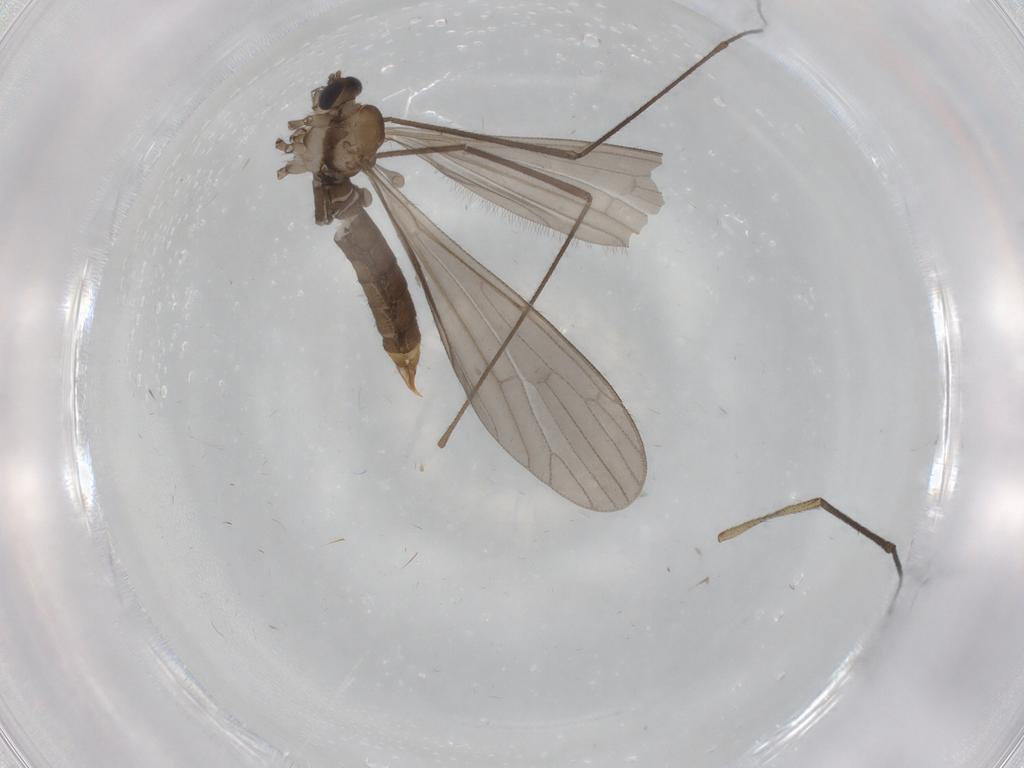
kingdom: Animalia
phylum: Arthropoda
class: Insecta
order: Diptera
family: Limoniidae
